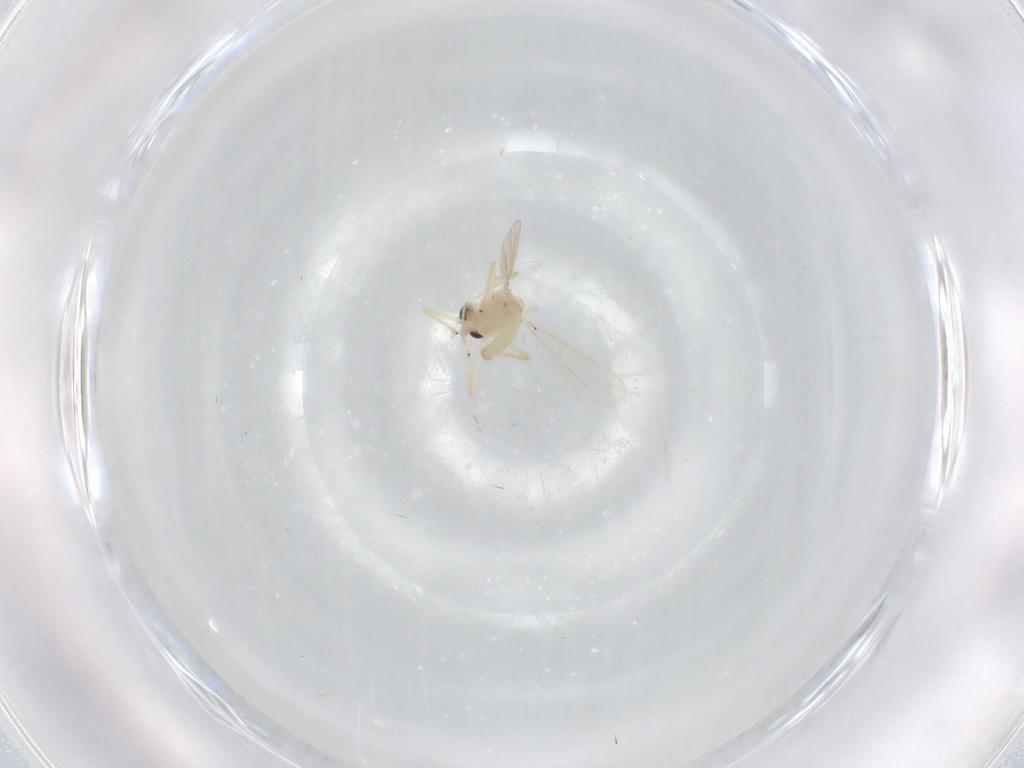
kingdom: Animalia
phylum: Arthropoda
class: Insecta
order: Diptera
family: Chironomidae
